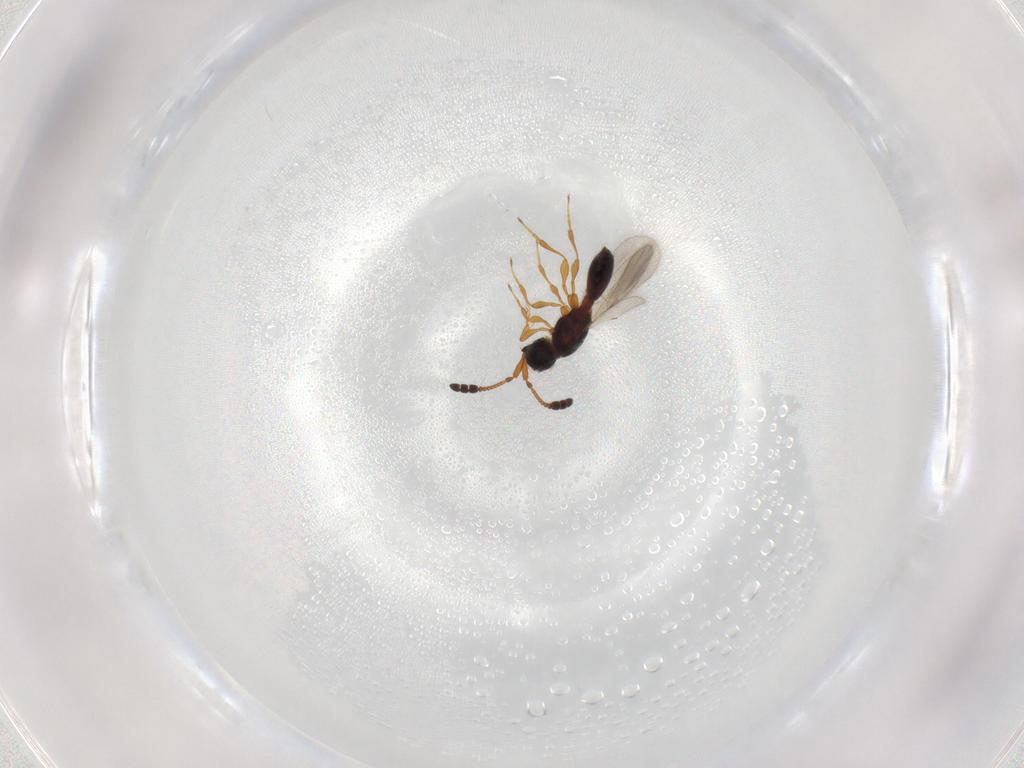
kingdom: Animalia
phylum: Arthropoda
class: Insecta
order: Hymenoptera
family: Diapriidae
